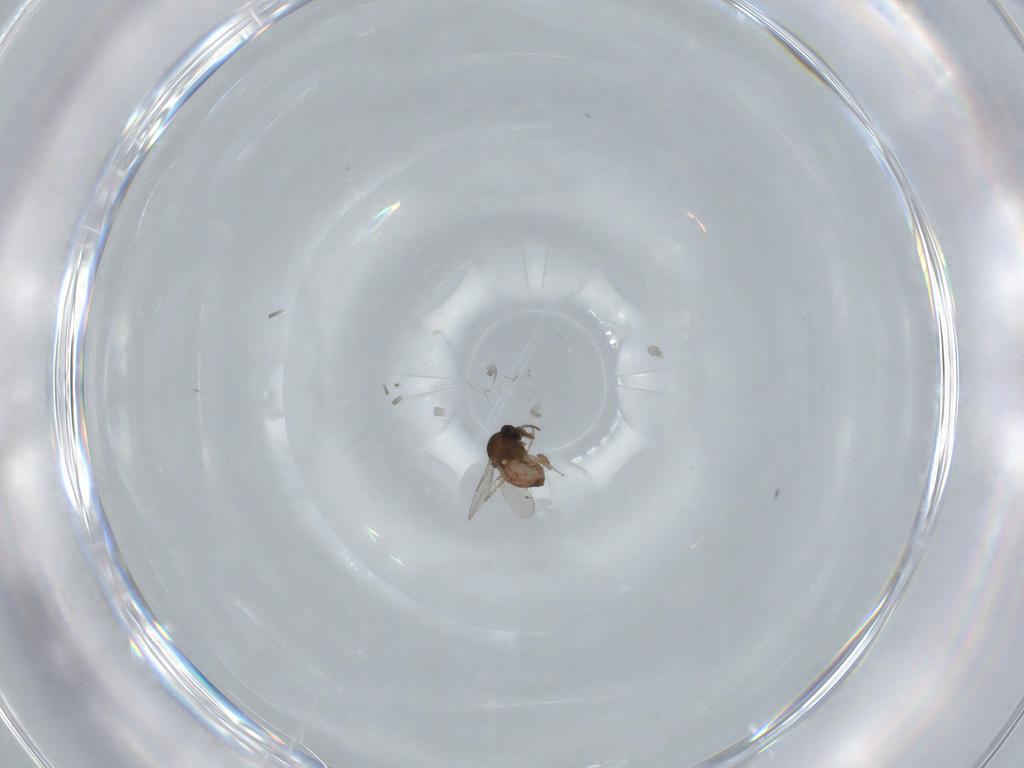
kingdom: Animalia
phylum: Arthropoda
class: Insecta
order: Diptera
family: Ceratopogonidae
